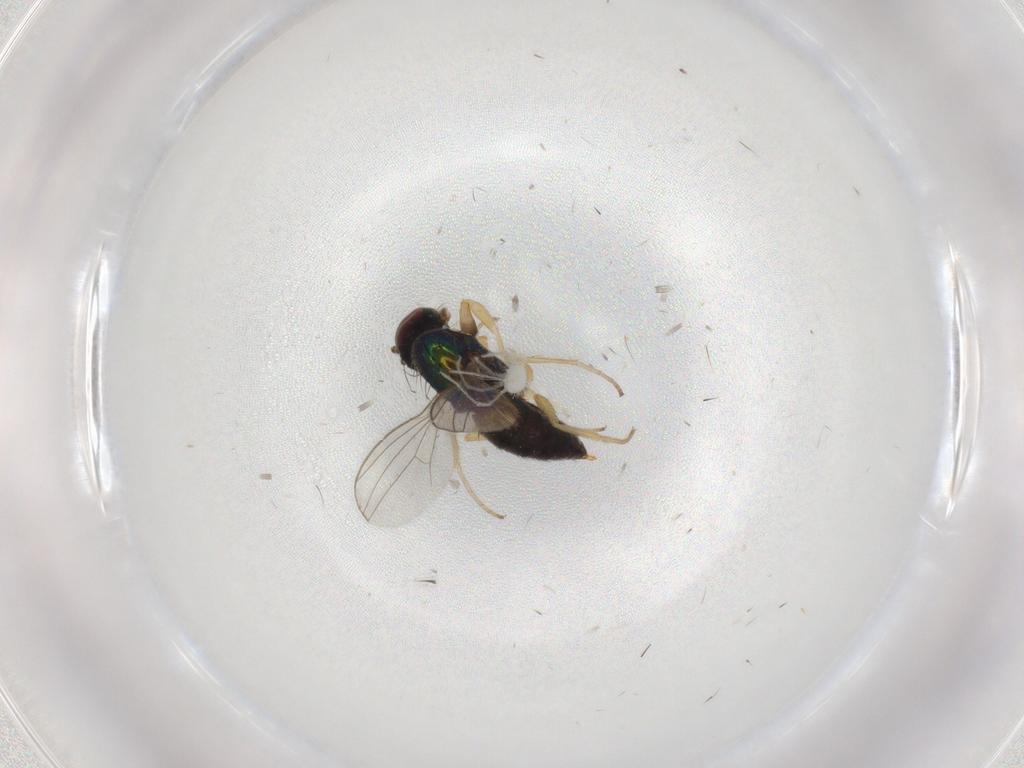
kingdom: Animalia
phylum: Arthropoda
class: Insecta
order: Diptera
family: Dolichopodidae
